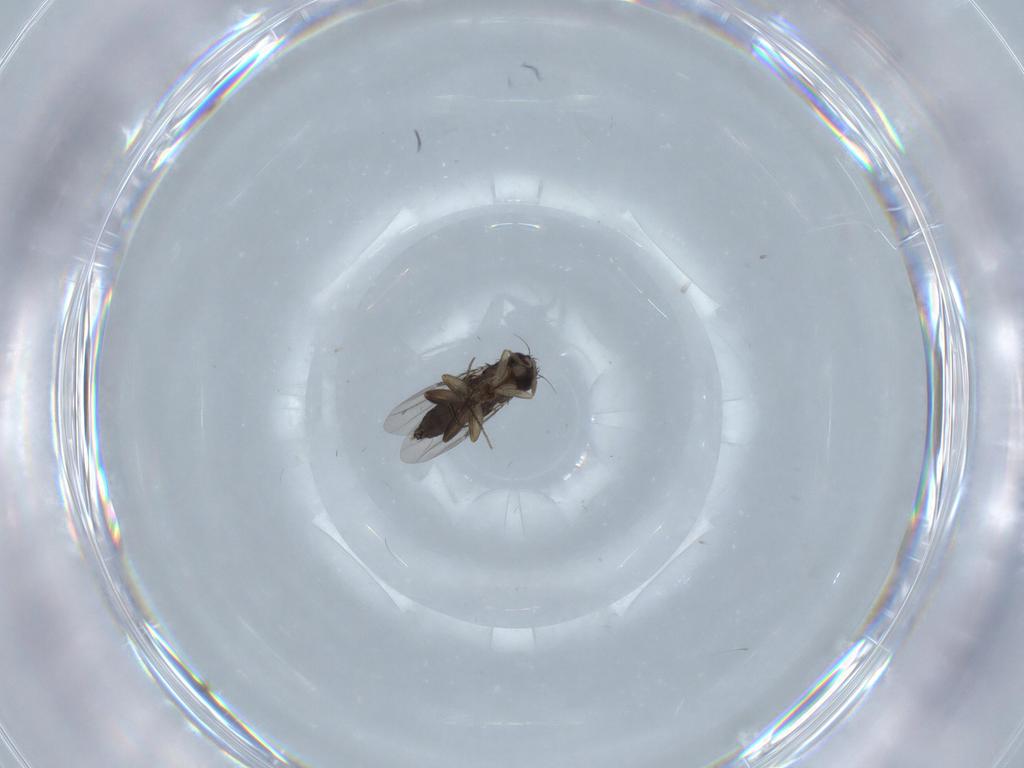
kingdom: Animalia
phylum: Arthropoda
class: Insecta
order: Diptera
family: Phoridae
